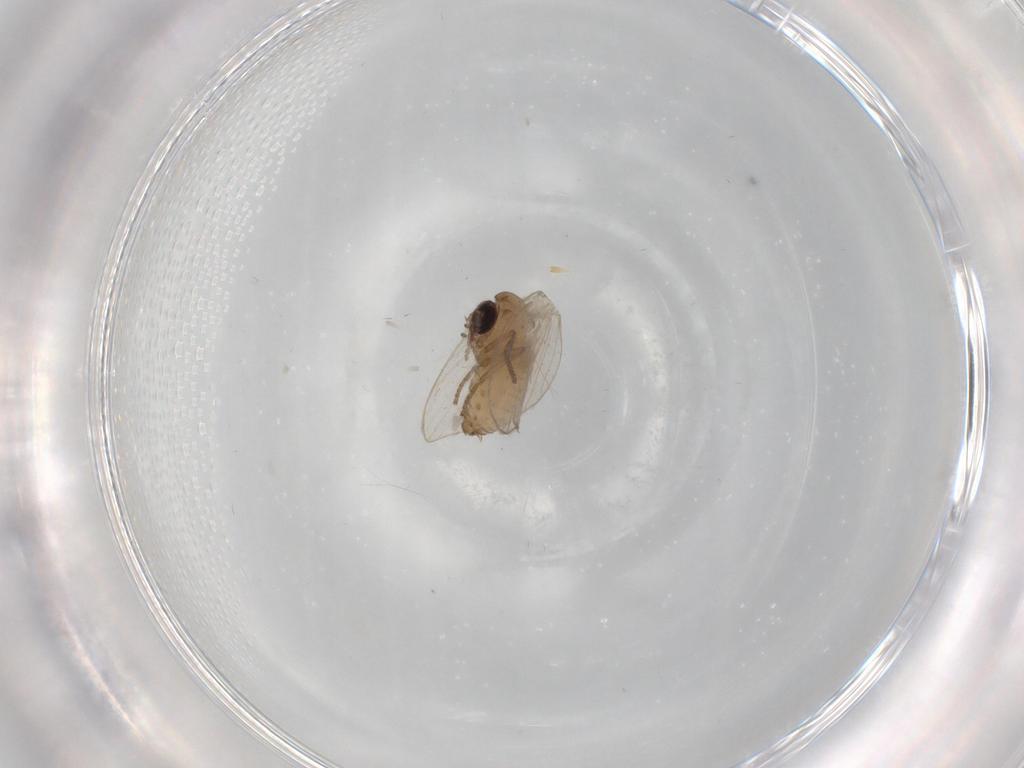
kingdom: Animalia
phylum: Arthropoda
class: Insecta
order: Diptera
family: Psychodidae
